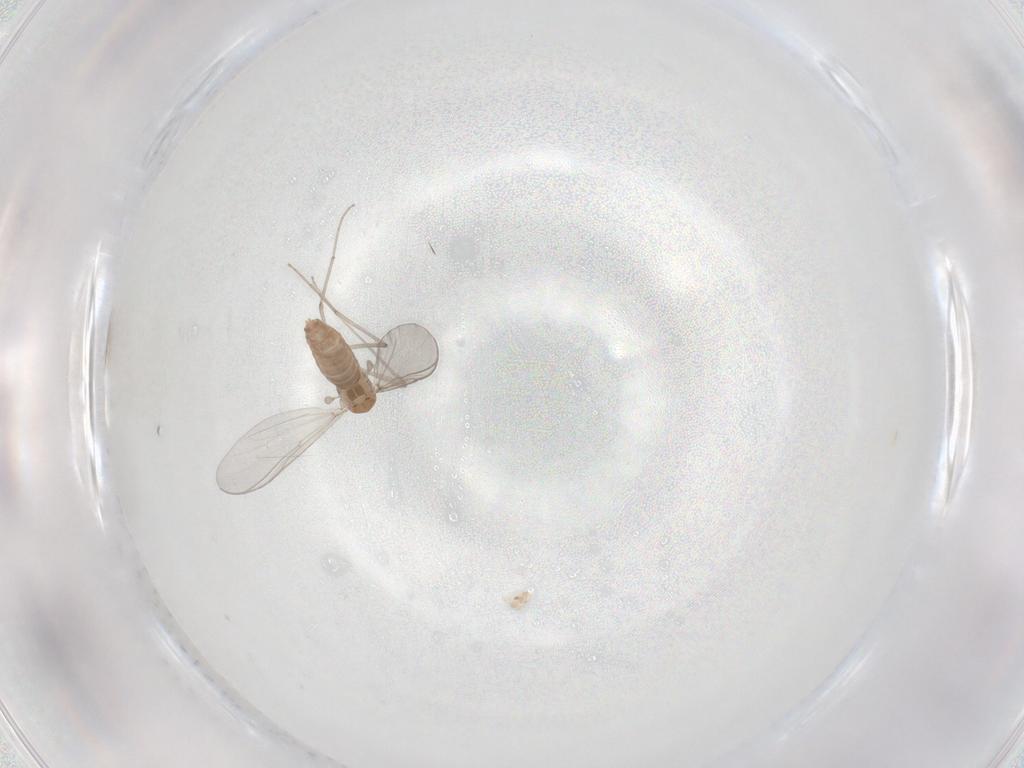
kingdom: Animalia
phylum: Arthropoda
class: Insecta
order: Diptera
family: Chironomidae
